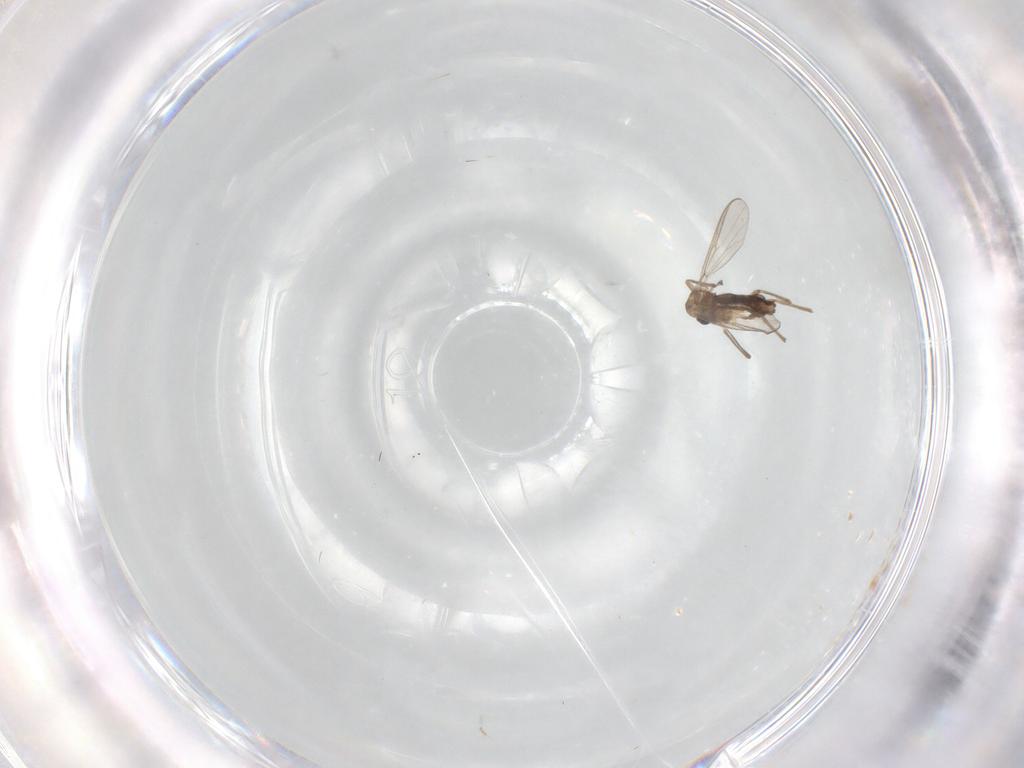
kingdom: Animalia
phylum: Arthropoda
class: Insecta
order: Diptera
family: Chironomidae
